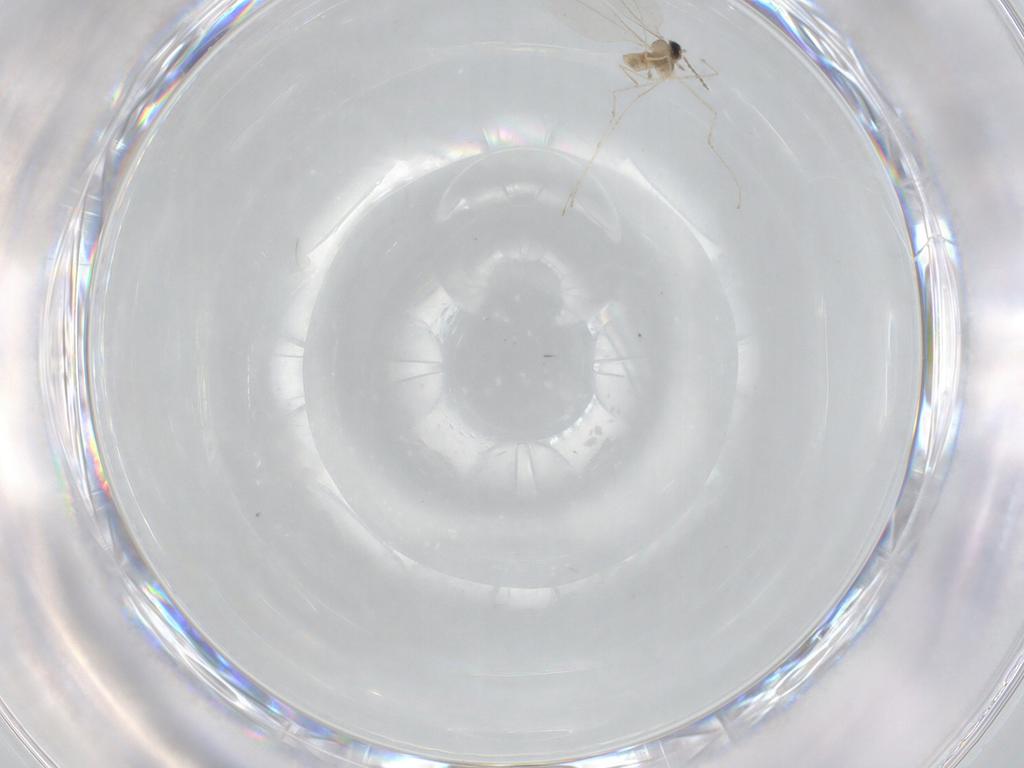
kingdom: Animalia
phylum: Arthropoda
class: Insecta
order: Diptera
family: Cecidomyiidae
